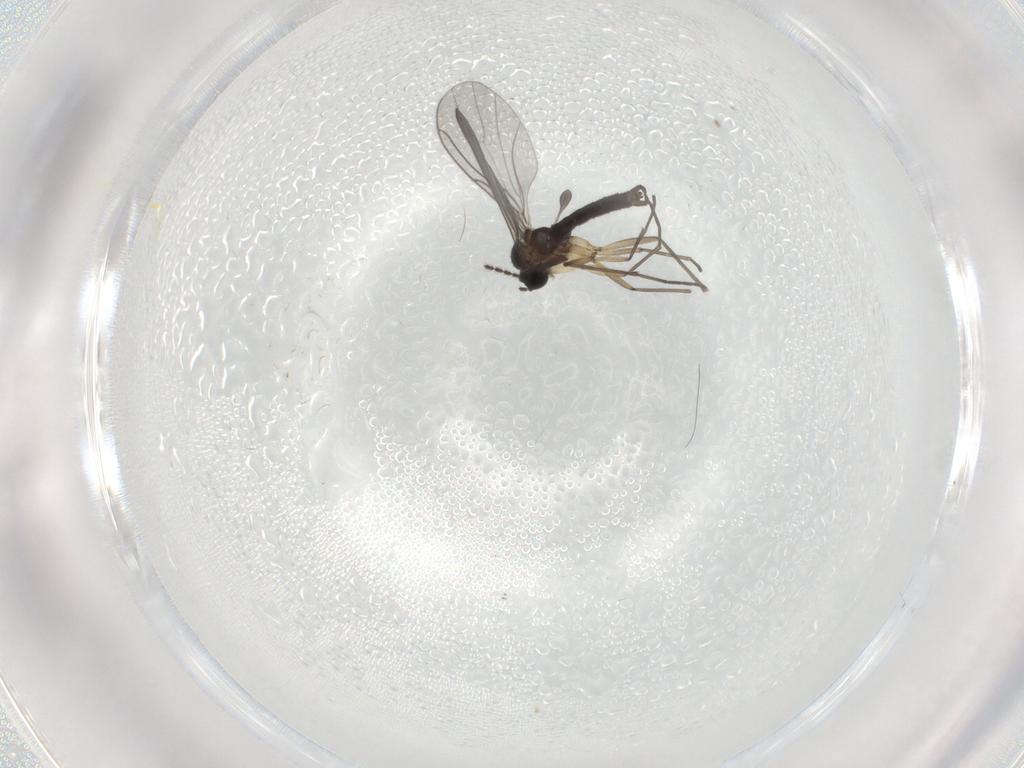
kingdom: Animalia
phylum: Arthropoda
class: Insecta
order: Diptera
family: Sciaridae
